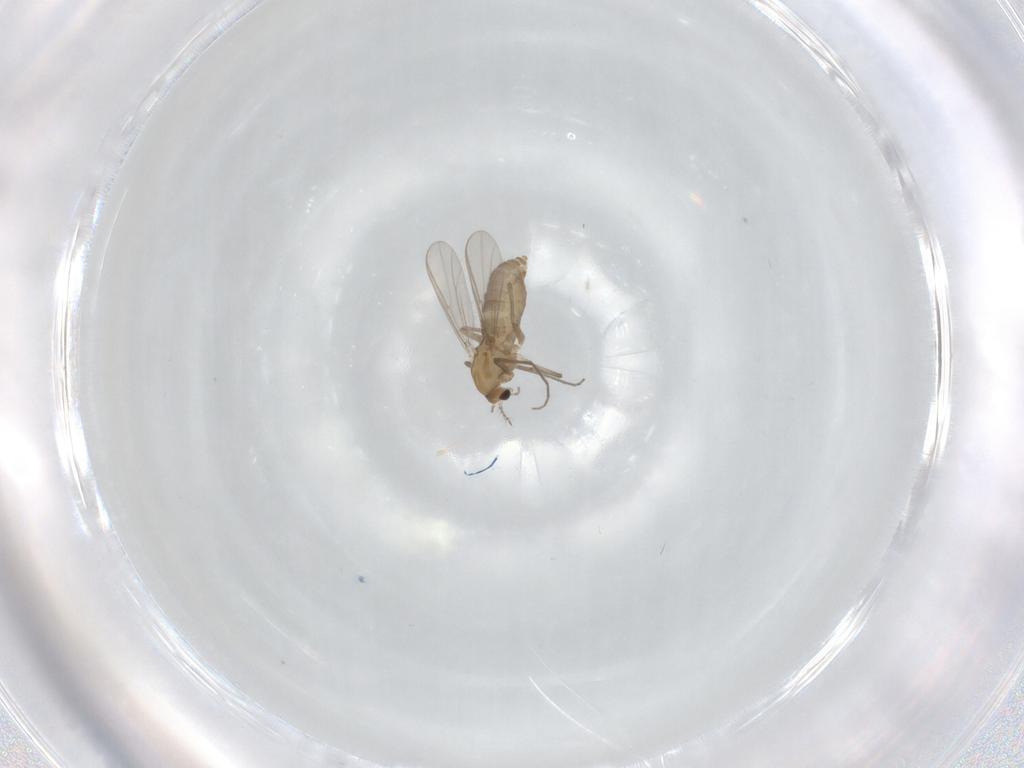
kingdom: Animalia
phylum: Arthropoda
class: Insecta
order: Diptera
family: Chironomidae
